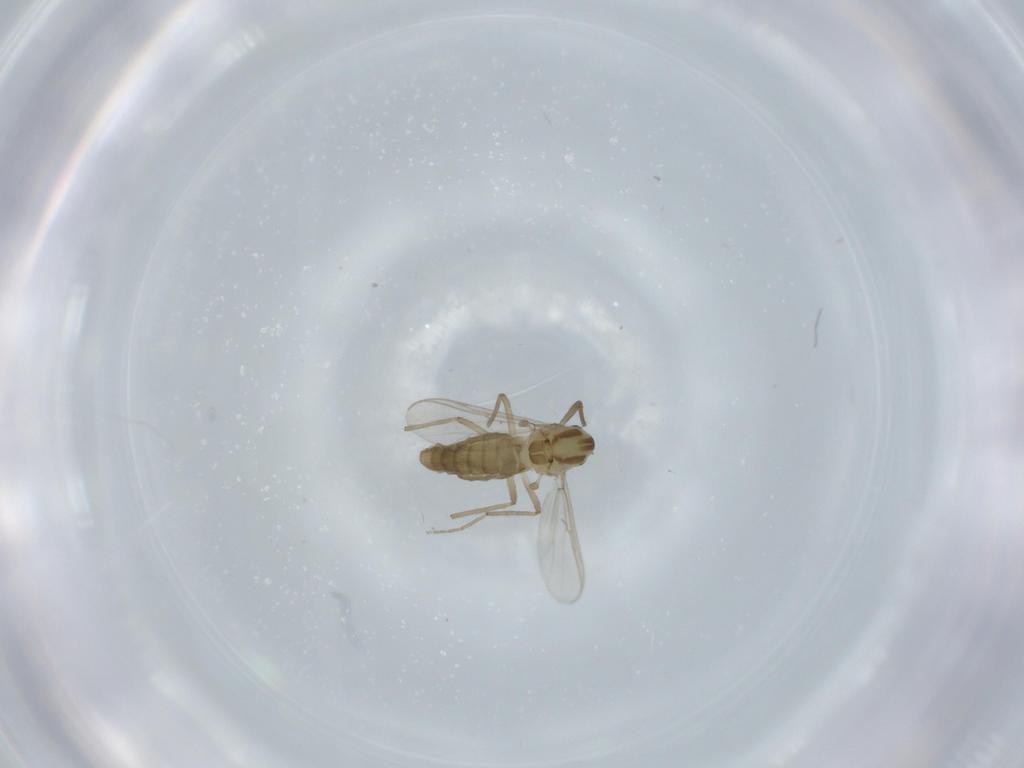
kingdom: Animalia
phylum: Arthropoda
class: Insecta
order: Diptera
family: Chironomidae
